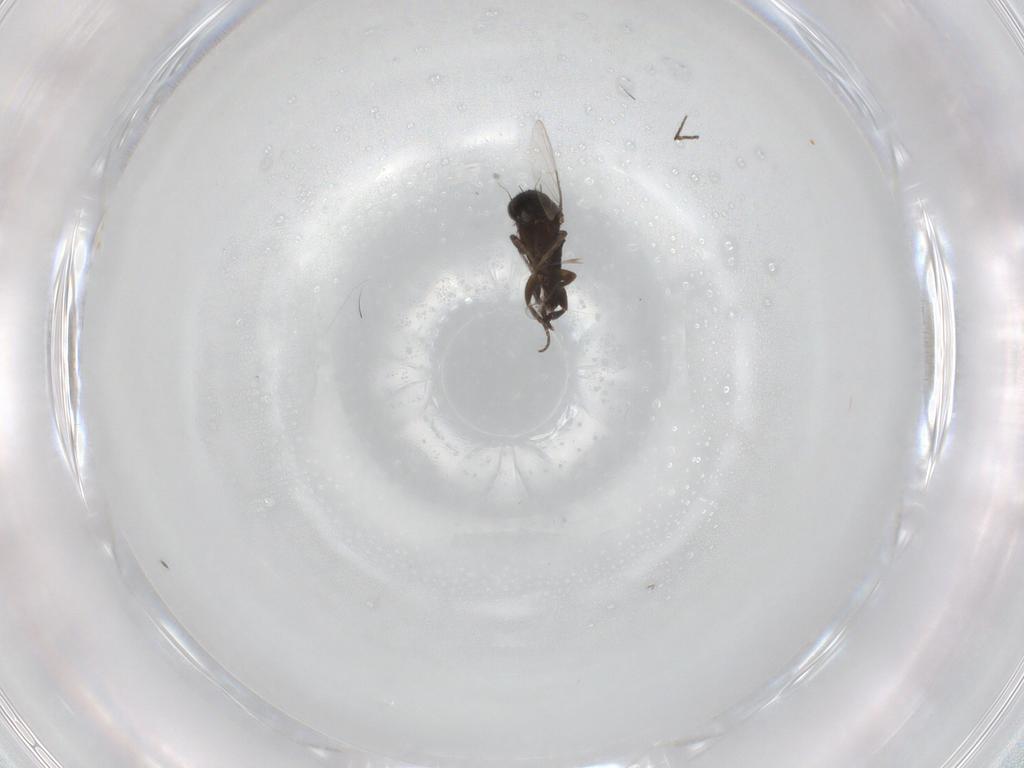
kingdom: Animalia
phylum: Arthropoda
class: Insecta
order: Diptera
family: Phoridae
